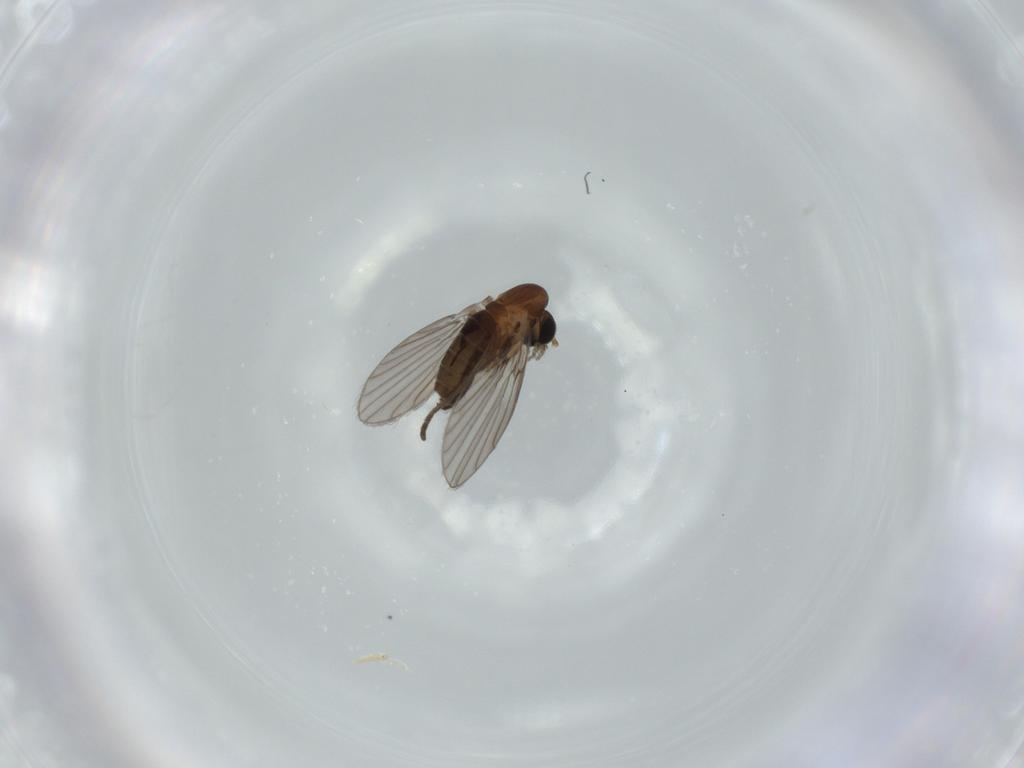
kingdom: Animalia
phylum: Arthropoda
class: Insecta
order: Diptera
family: Psychodidae
